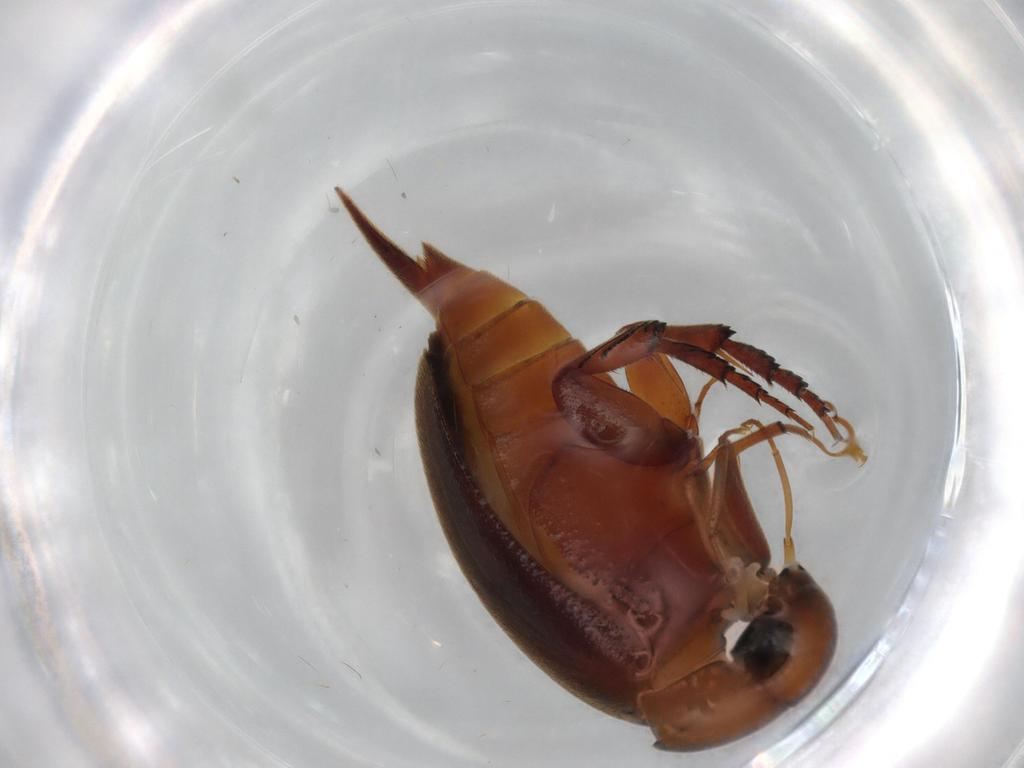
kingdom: Animalia
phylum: Arthropoda
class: Insecta
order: Coleoptera
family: Mordellidae
